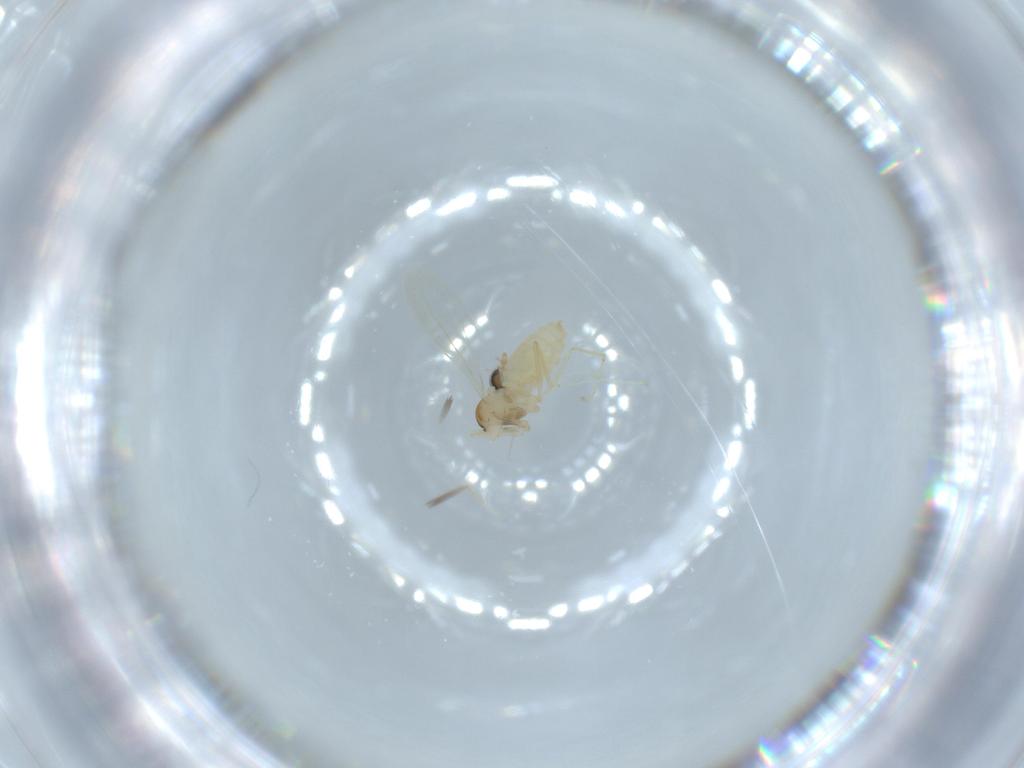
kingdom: Animalia
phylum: Arthropoda
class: Insecta
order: Diptera
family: Cecidomyiidae
